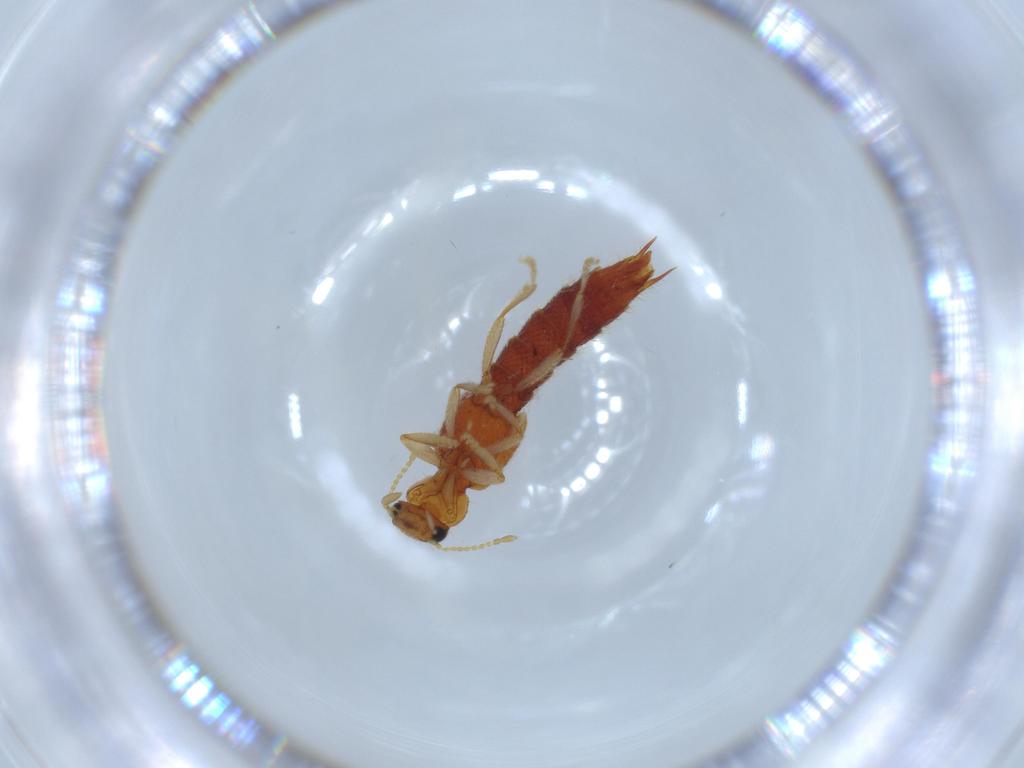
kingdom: Animalia
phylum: Arthropoda
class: Insecta
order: Coleoptera
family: Staphylinidae
